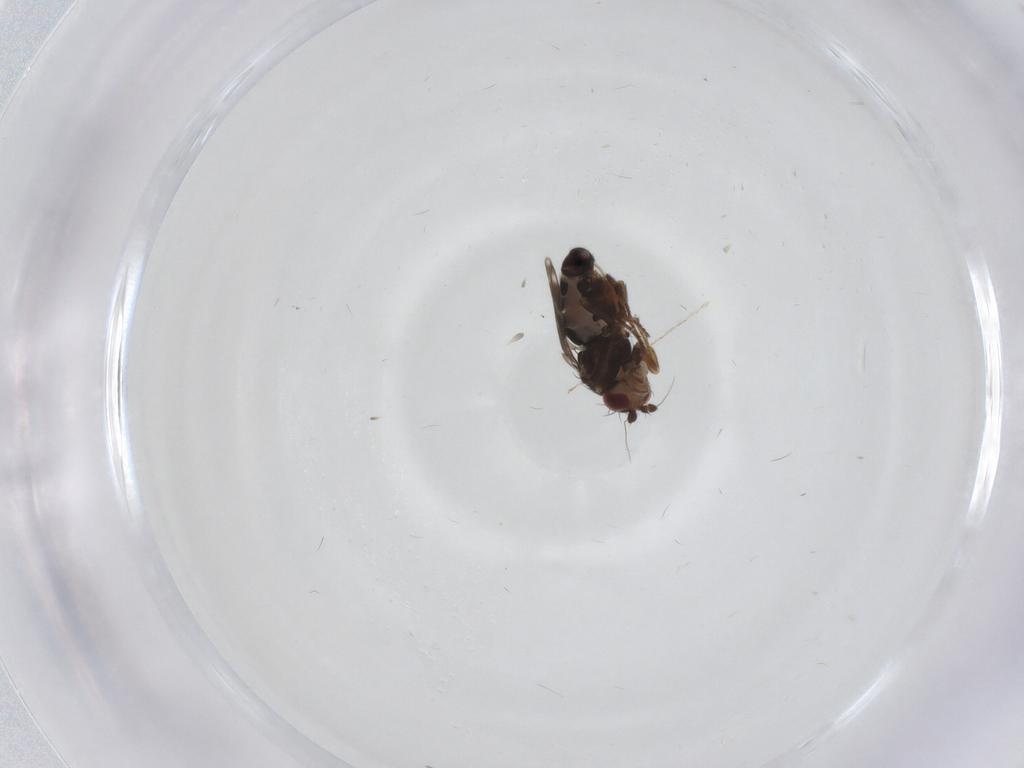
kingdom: Animalia
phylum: Arthropoda
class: Insecta
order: Diptera
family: Sphaeroceridae
